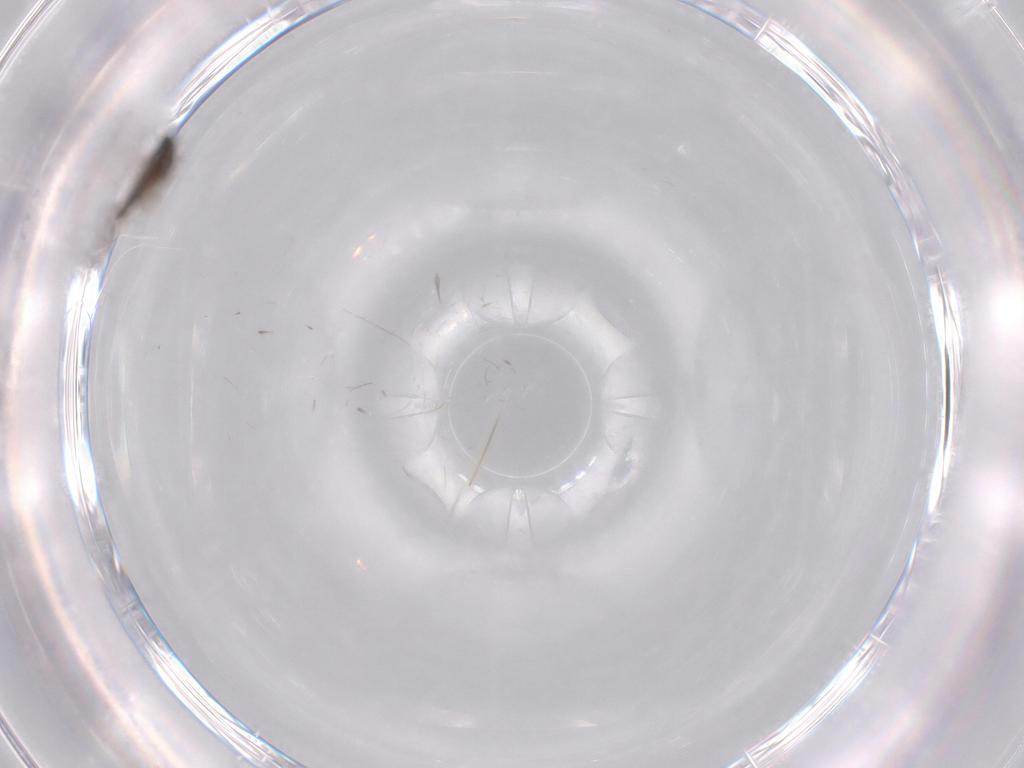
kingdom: Animalia
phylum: Arthropoda
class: Insecta
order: Diptera
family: Chironomidae
